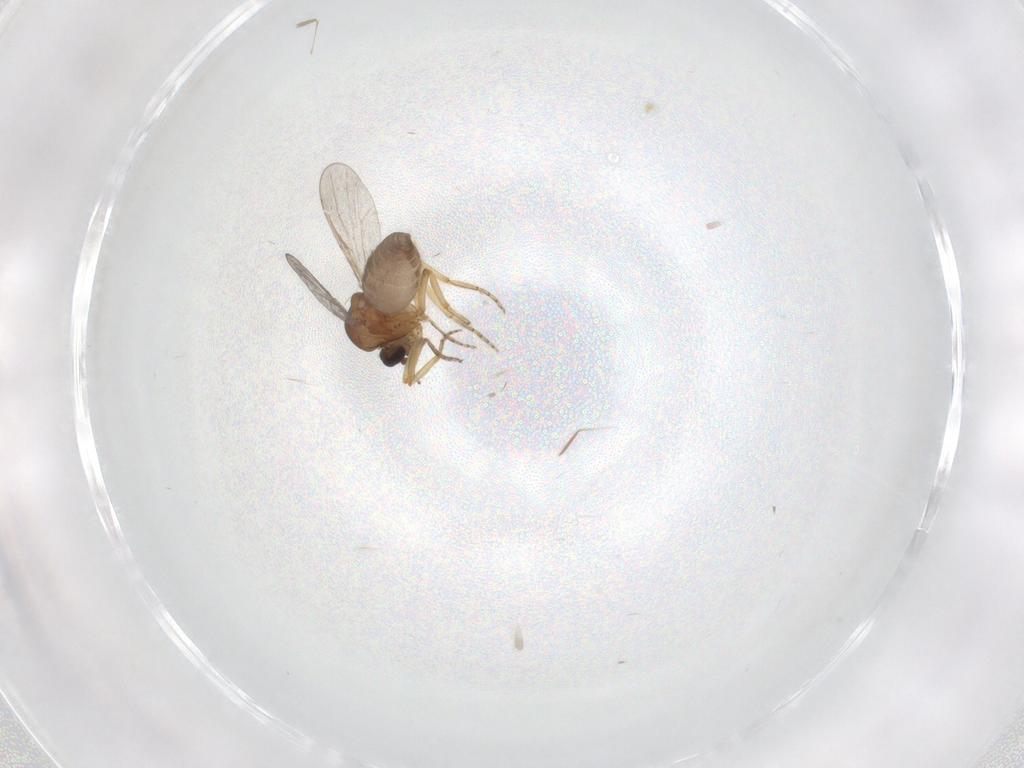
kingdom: Animalia
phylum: Arthropoda
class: Insecta
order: Diptera
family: Ceratopogonidae
